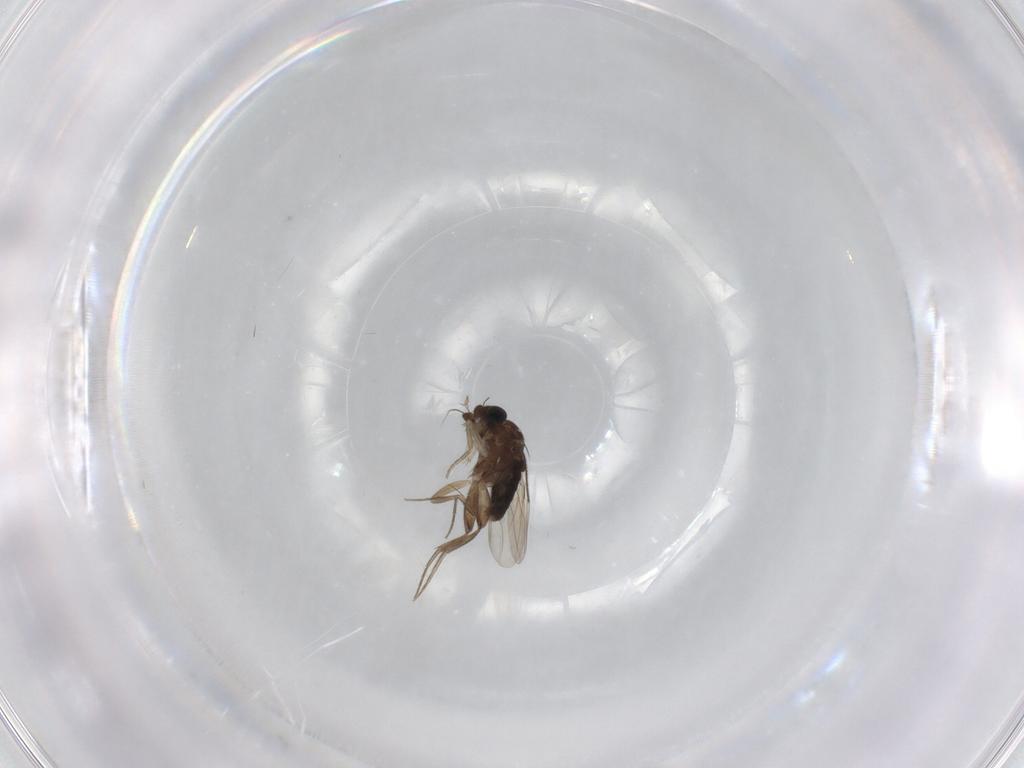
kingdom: Animalia
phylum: Arthropoda
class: Insecta
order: Diptera
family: Phoridae
